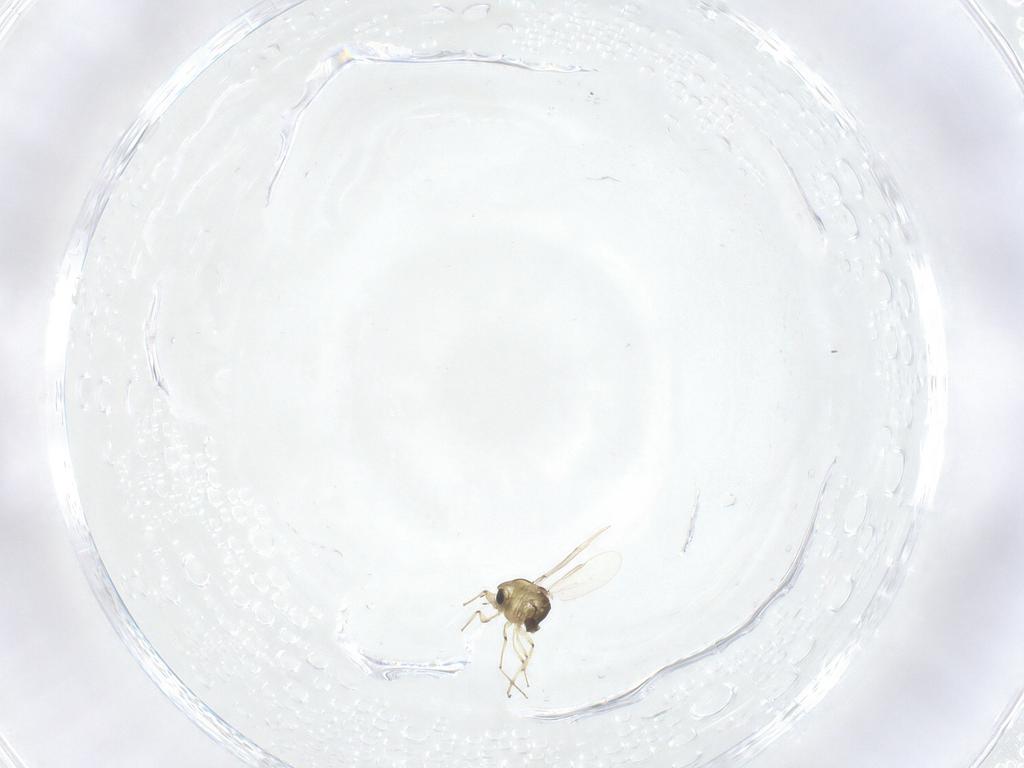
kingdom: Animalia
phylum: Arthropoda
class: Insecta
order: Diptera
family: Chironomidae
